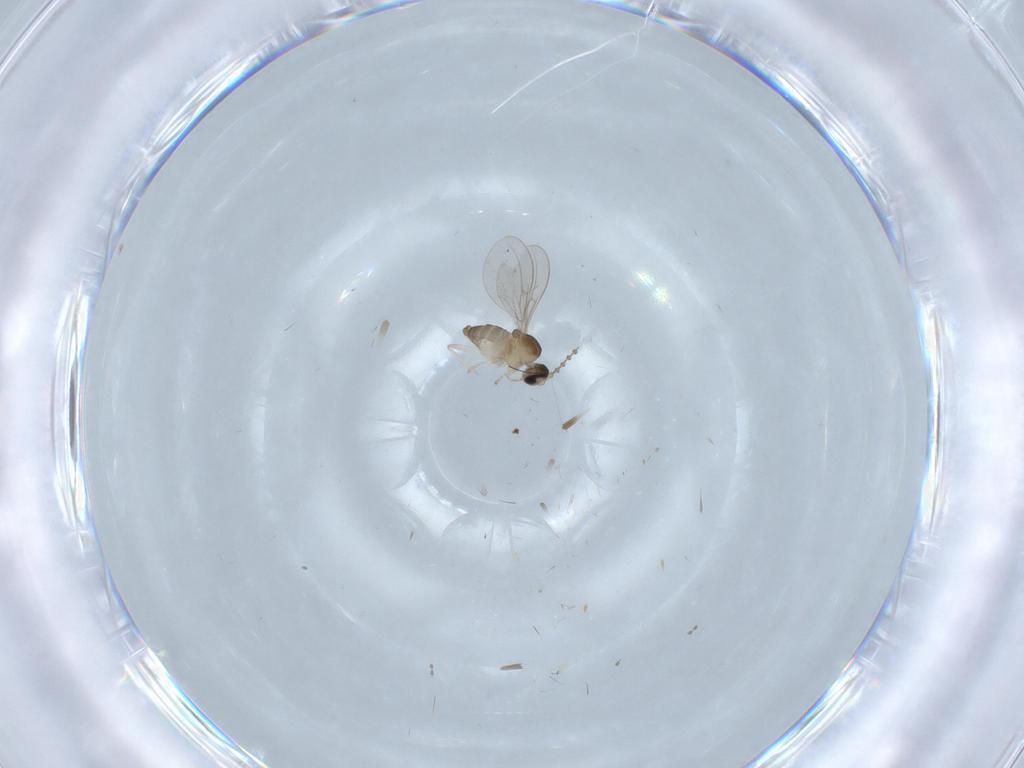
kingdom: Animalia
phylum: Arthropoda
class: Insecta
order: Diptera
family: Cecidomyiidae
